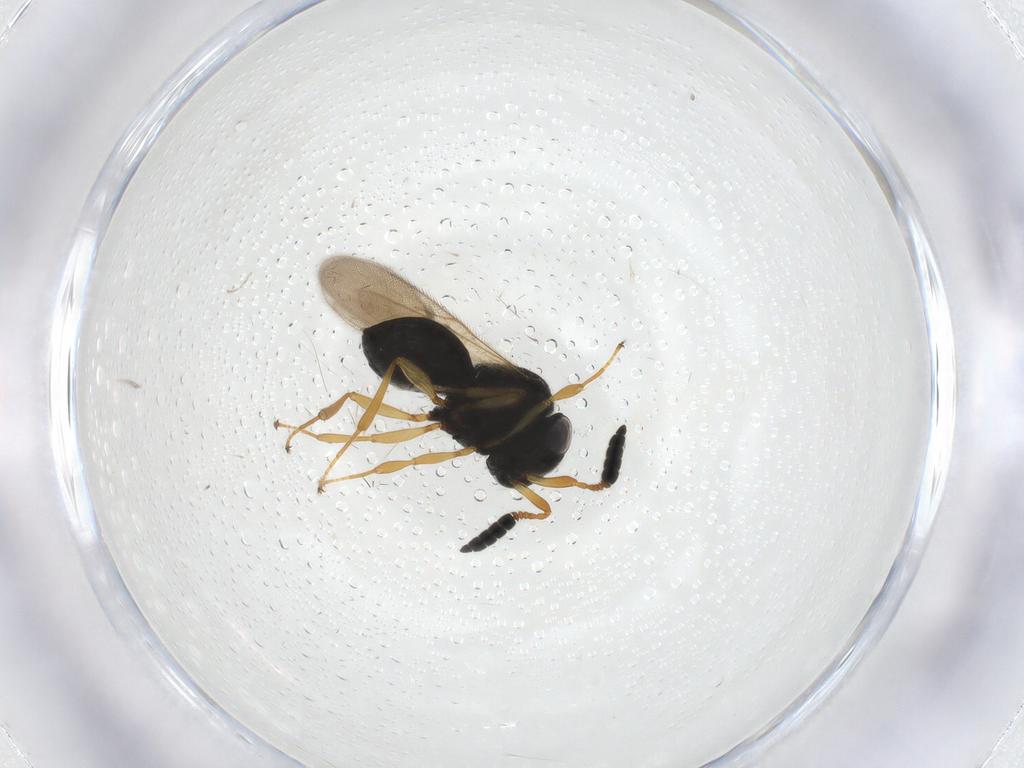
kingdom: Animalia
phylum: Arthropoda
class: Insecta
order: Hymenoptera
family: Scelionidae
